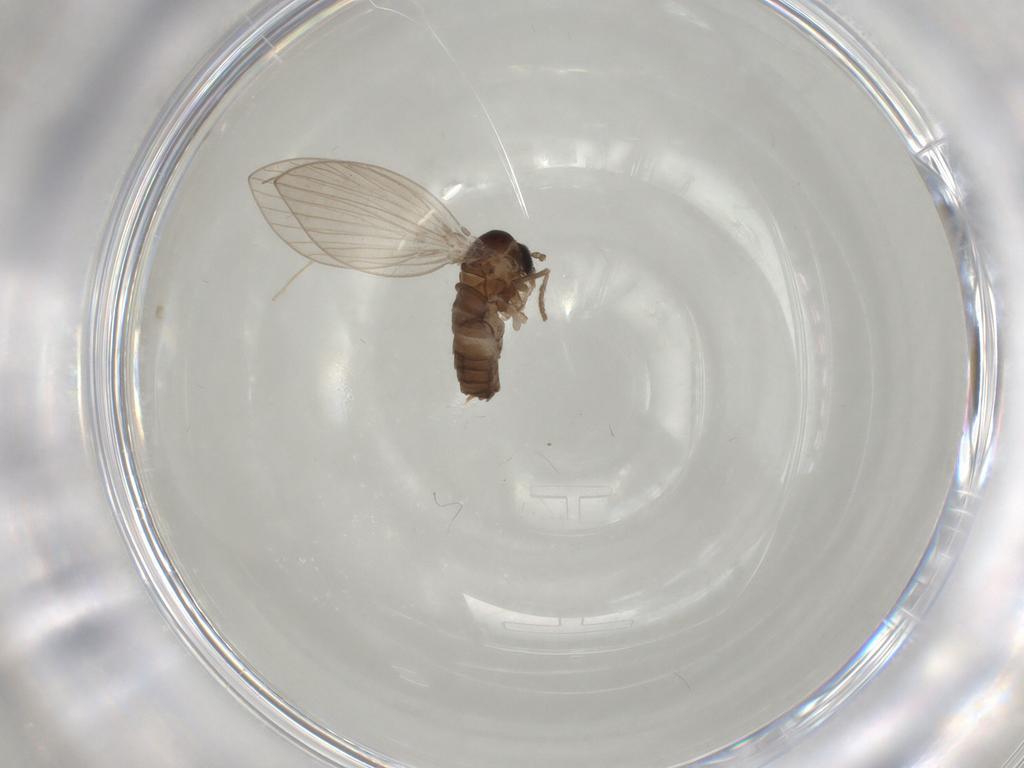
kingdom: Animalia
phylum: Arthropoda
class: Insecta
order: Diptera
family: Psychodidae
